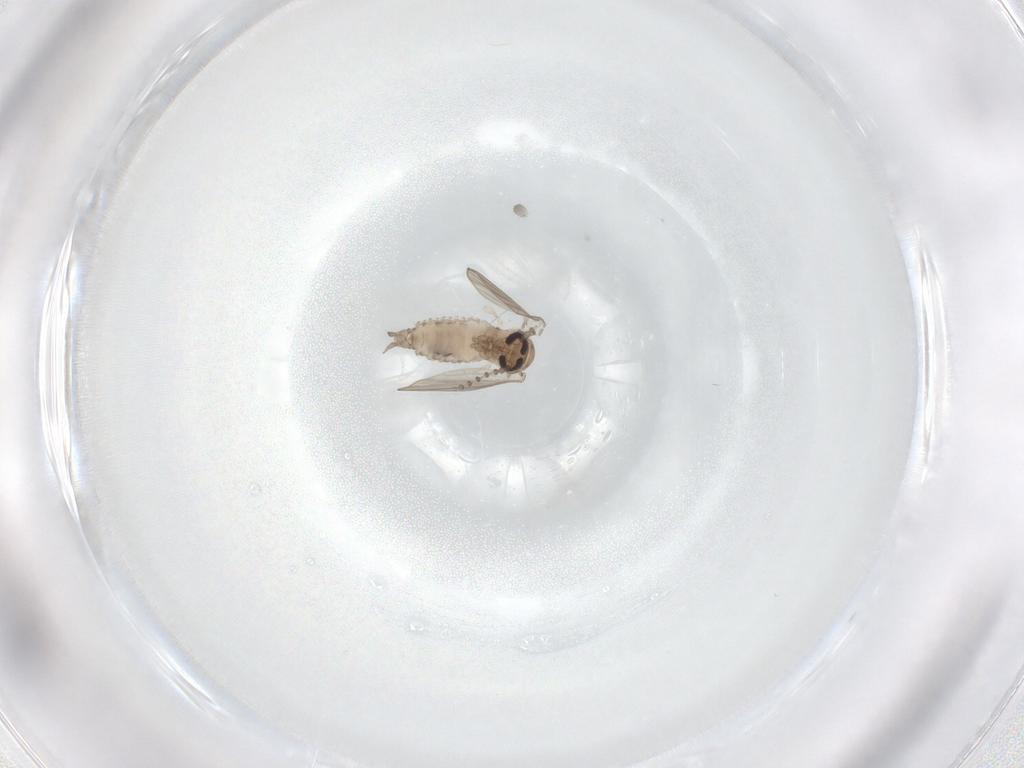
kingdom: Animalia
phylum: Arthropoda
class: Insecta
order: Diptera
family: Psychodidae
